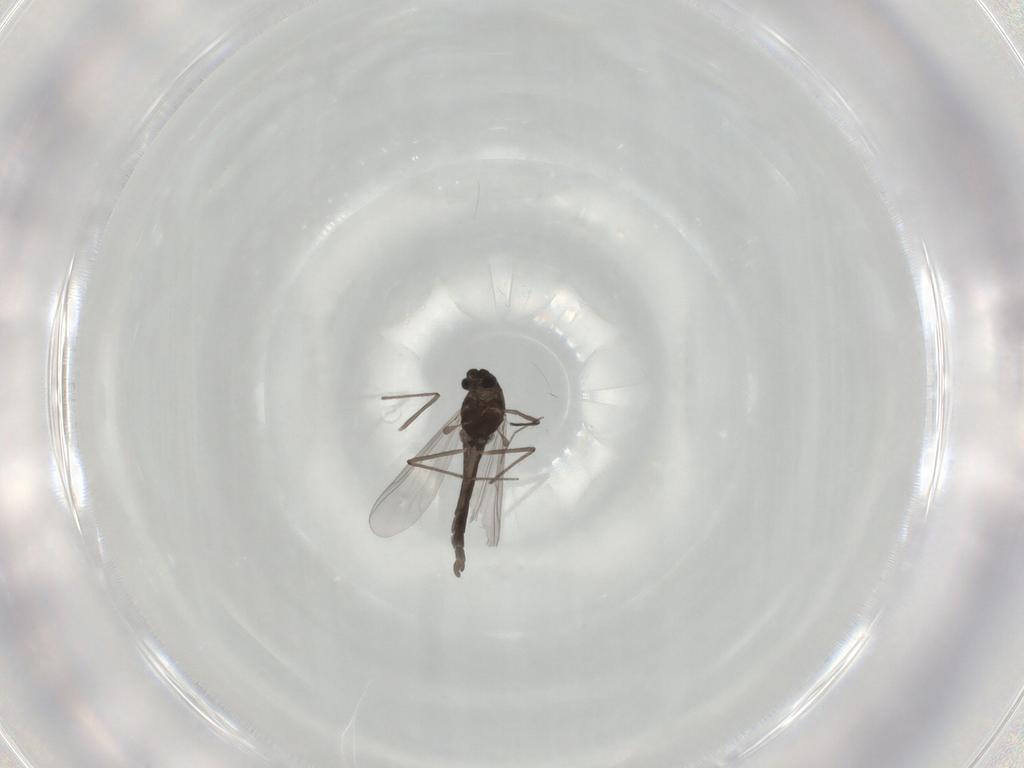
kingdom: Animalia
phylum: Arthropoda
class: Insecta
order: Diptera
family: Chironomidae
